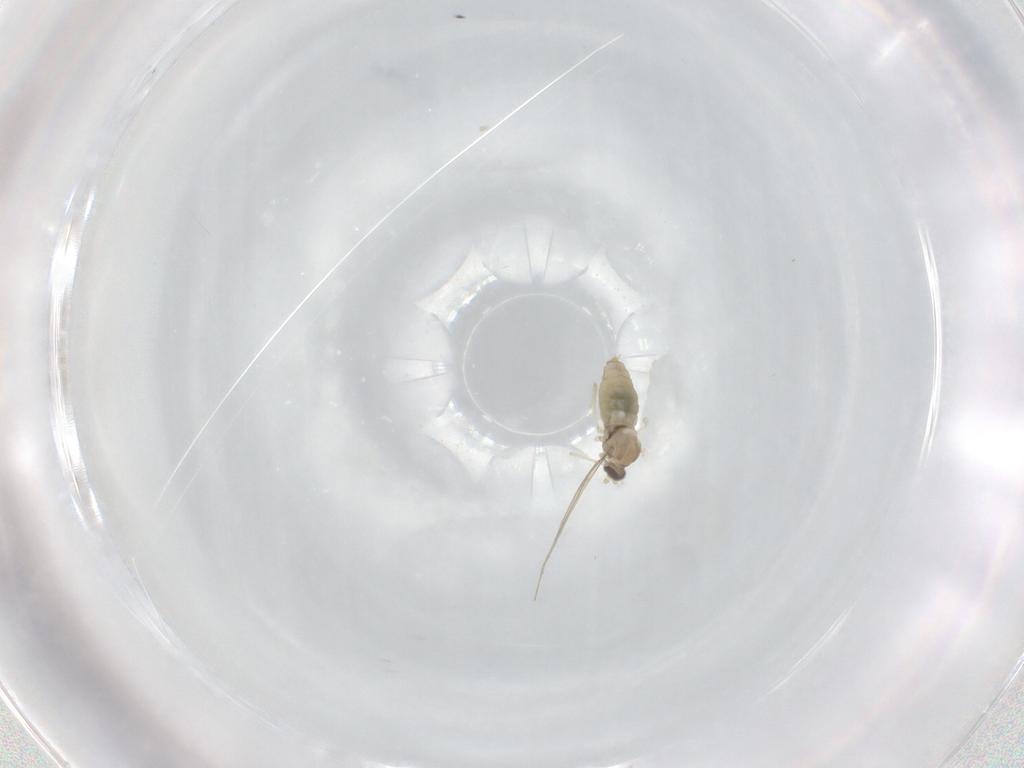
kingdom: Animalia
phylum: Arthropoda
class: Insecta
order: Diptera
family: Cecidomyiidae
